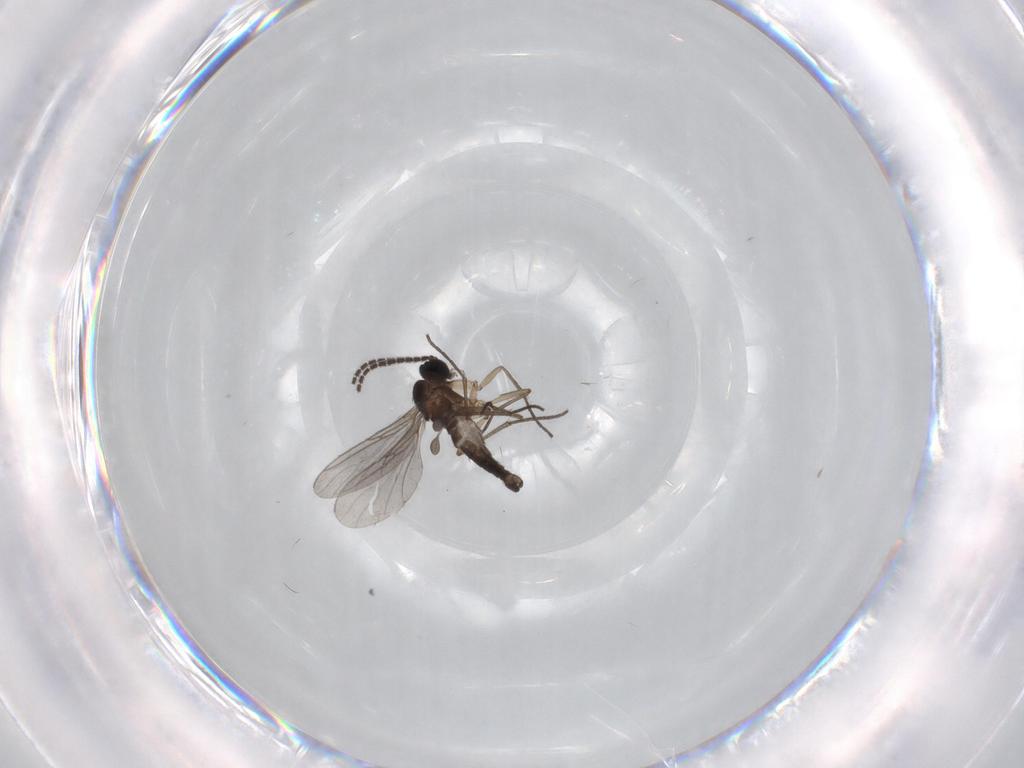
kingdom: Animalia
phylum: Arthropoda
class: Insecta
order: Diptera
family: Sciaridae
